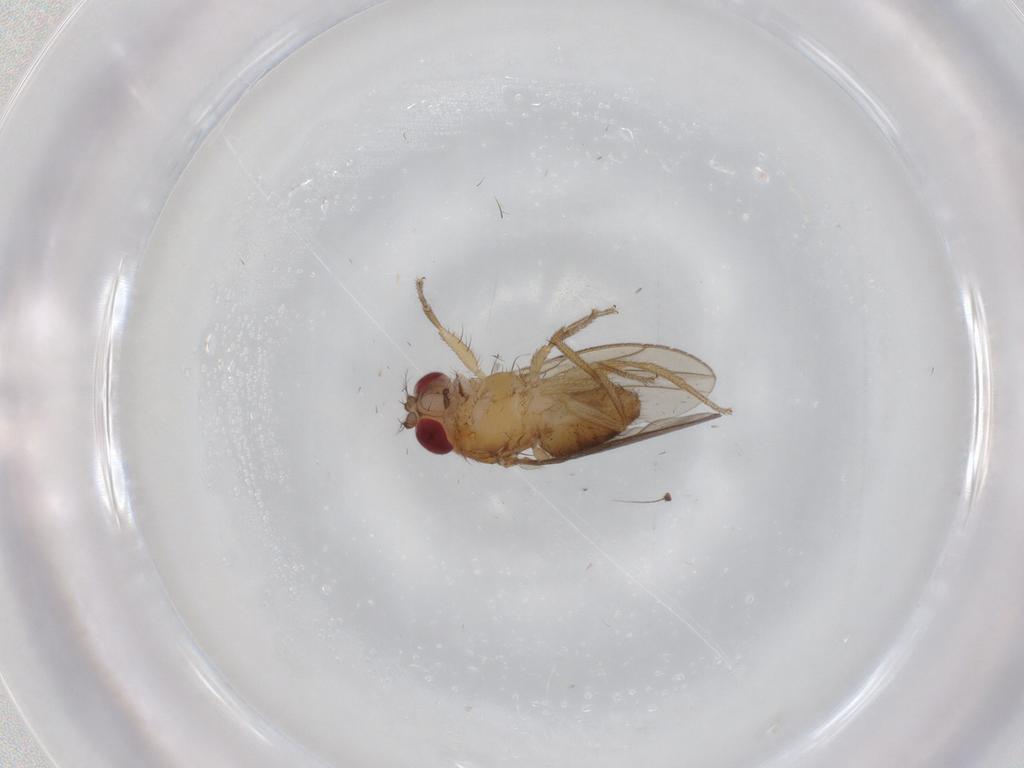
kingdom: Animalia
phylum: Arthropoda
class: Insecta
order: Diptera
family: Drosophilidae
